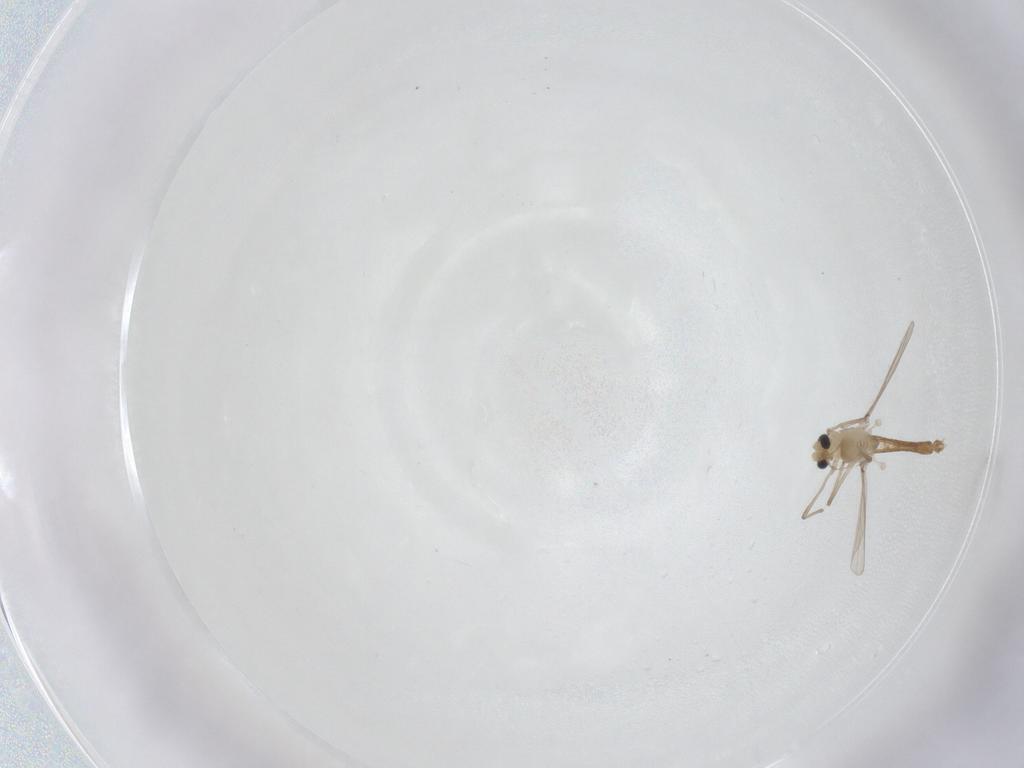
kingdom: Animalia
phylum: Arthropoda
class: Insecta
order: Diptera
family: Chironomidae
